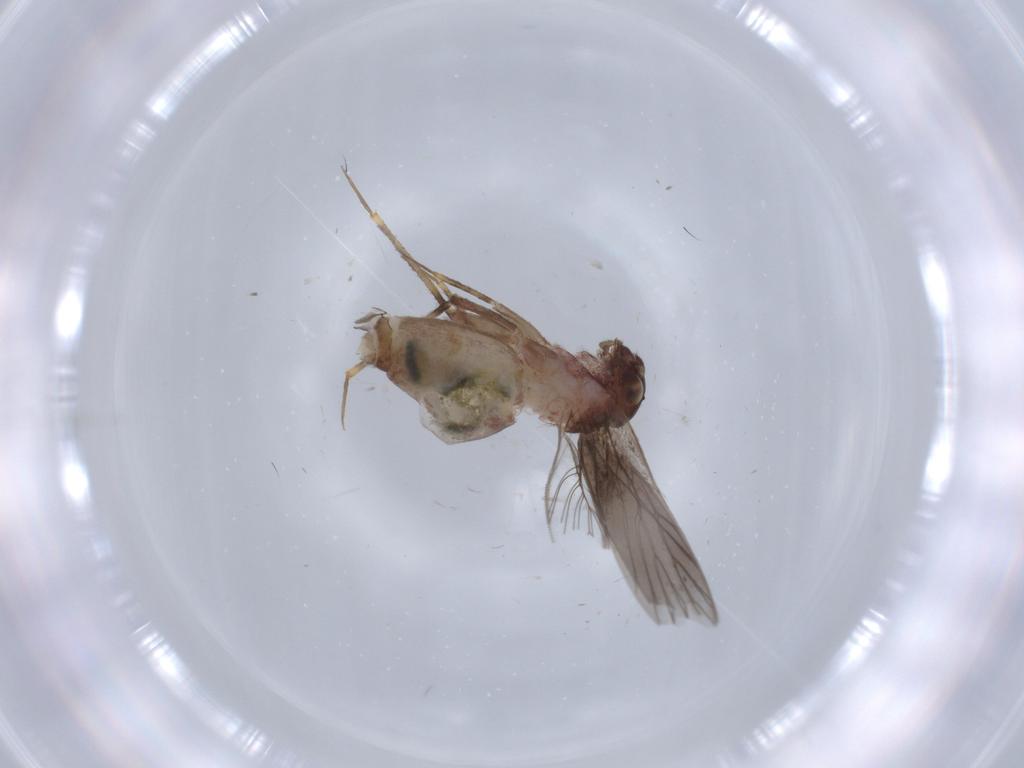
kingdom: Animalia
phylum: Arthropoda
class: Insecta
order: Psocodea
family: Lepidopsocidae
